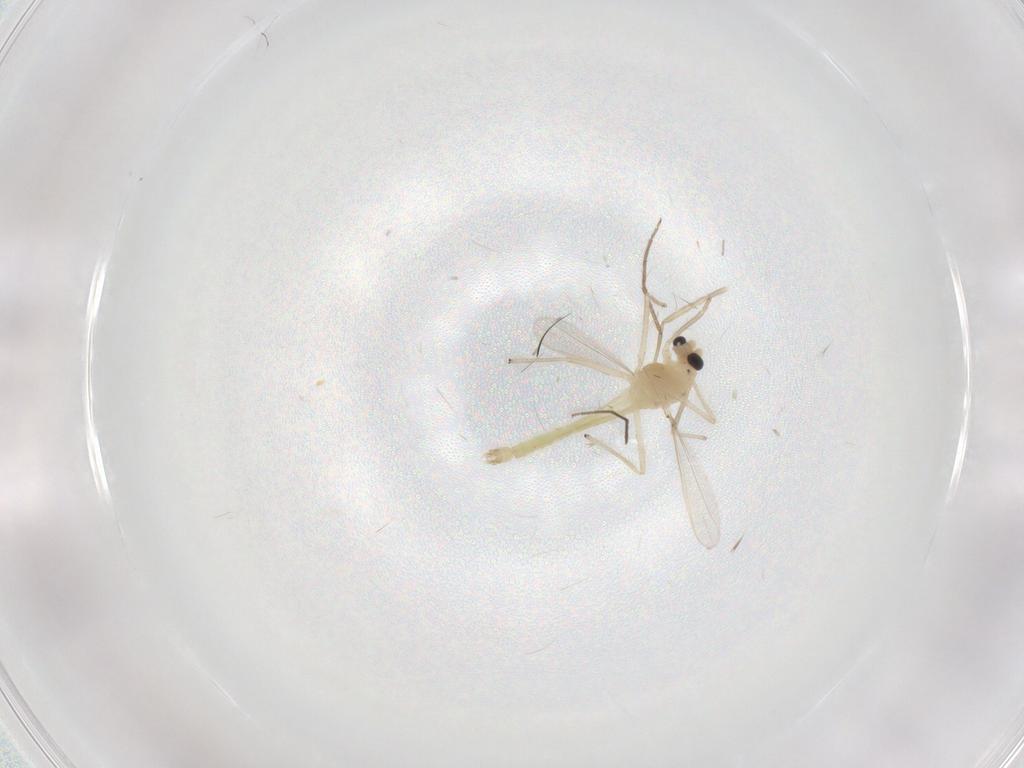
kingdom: Animalia
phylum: Arthropoda
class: Insecta
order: Diptera
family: Chironomidae
